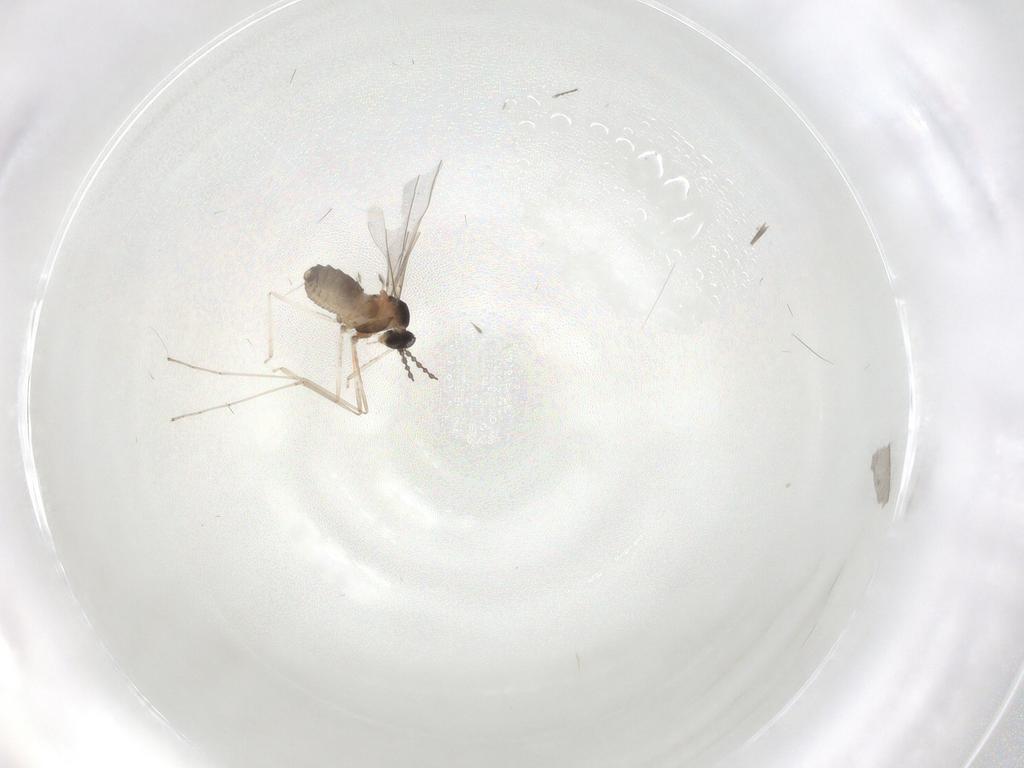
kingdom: Animalia
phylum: Arthropoda
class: Insecta
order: Diptera
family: Cecidomyiidae
